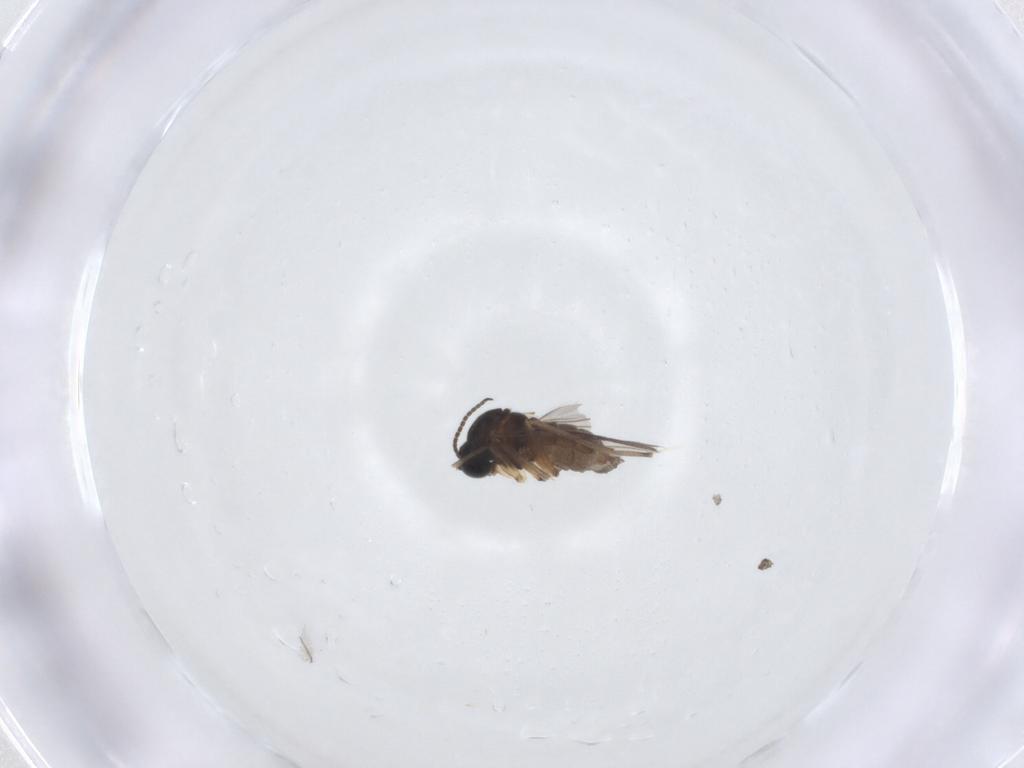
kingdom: Animalia
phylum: Arthropoda
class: Insecta
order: Diptera
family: Sciaridae
